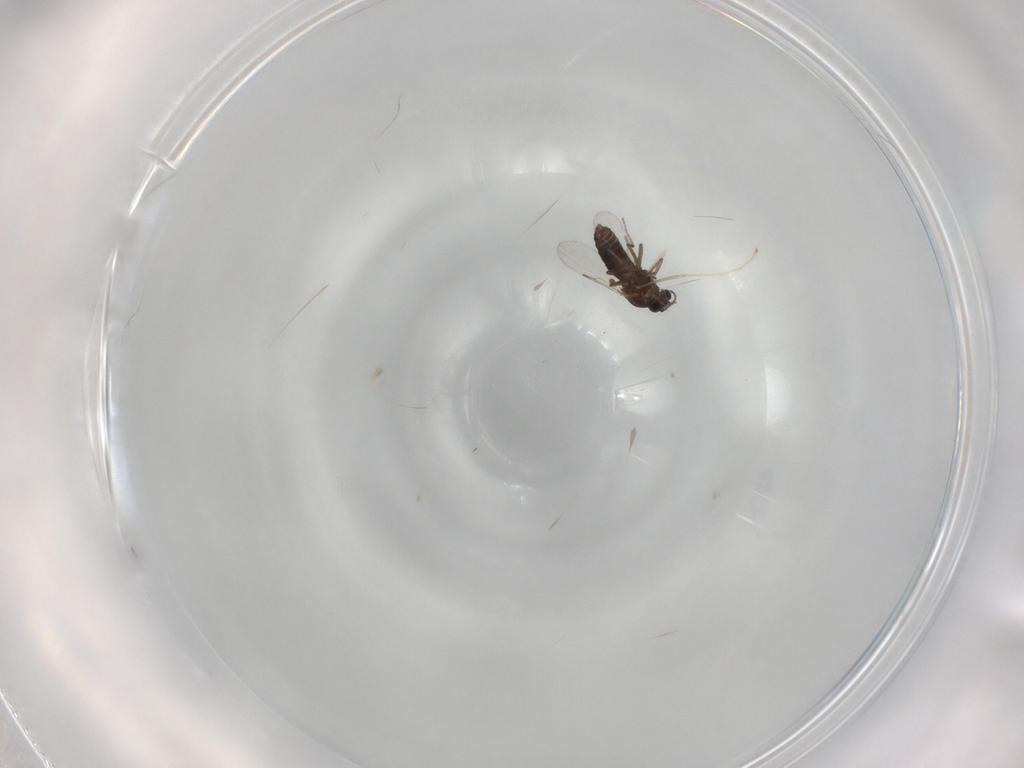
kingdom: Animalia
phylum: Arthropoda
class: Insecta
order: Diptera
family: Ceratopogonidae
